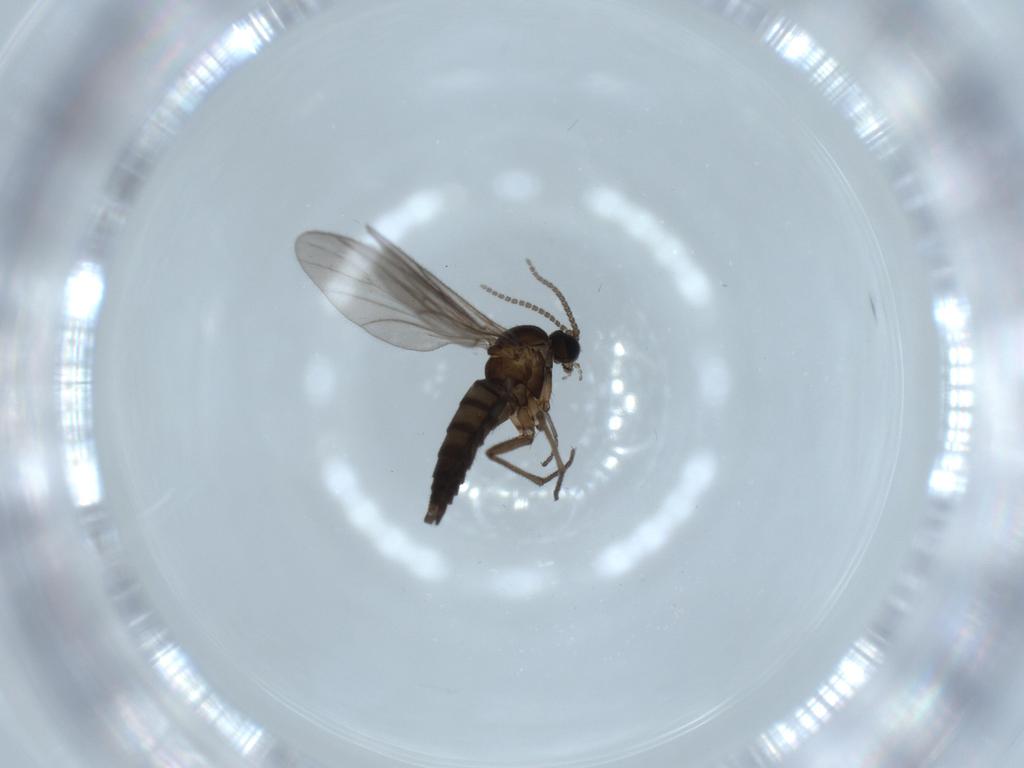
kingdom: Animalia
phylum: Arthropoda
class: Insecta
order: Diptera
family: Sciaridae
